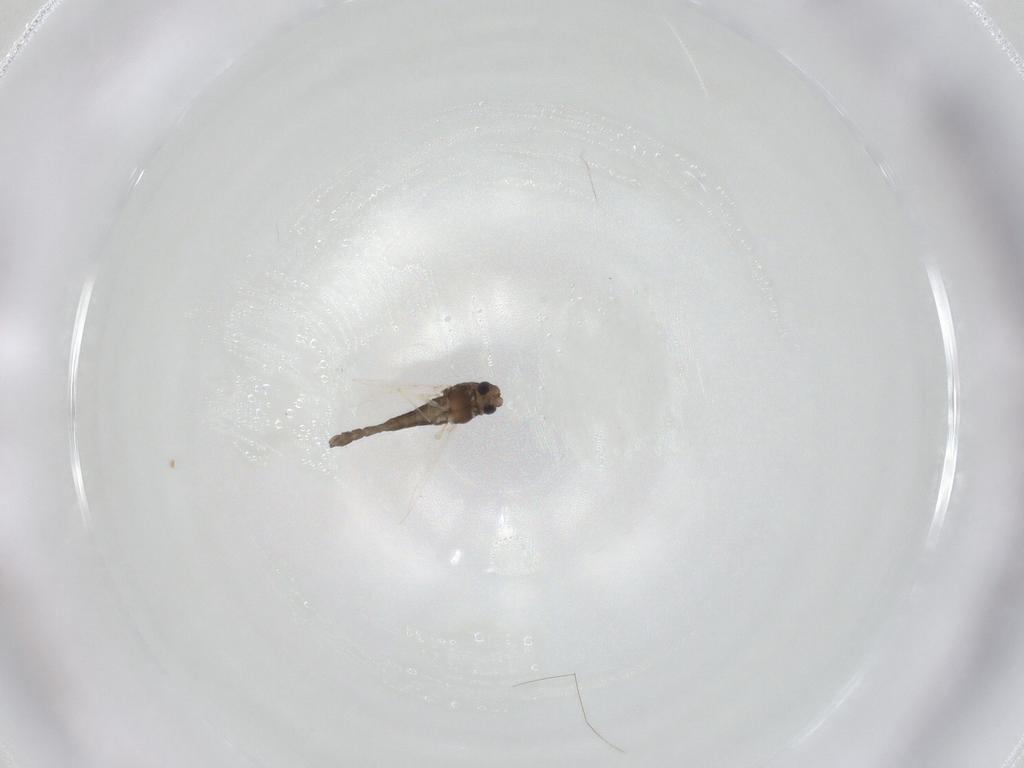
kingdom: Animalia
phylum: Arthropoda
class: Insecta
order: Diptera
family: Chironomidae
